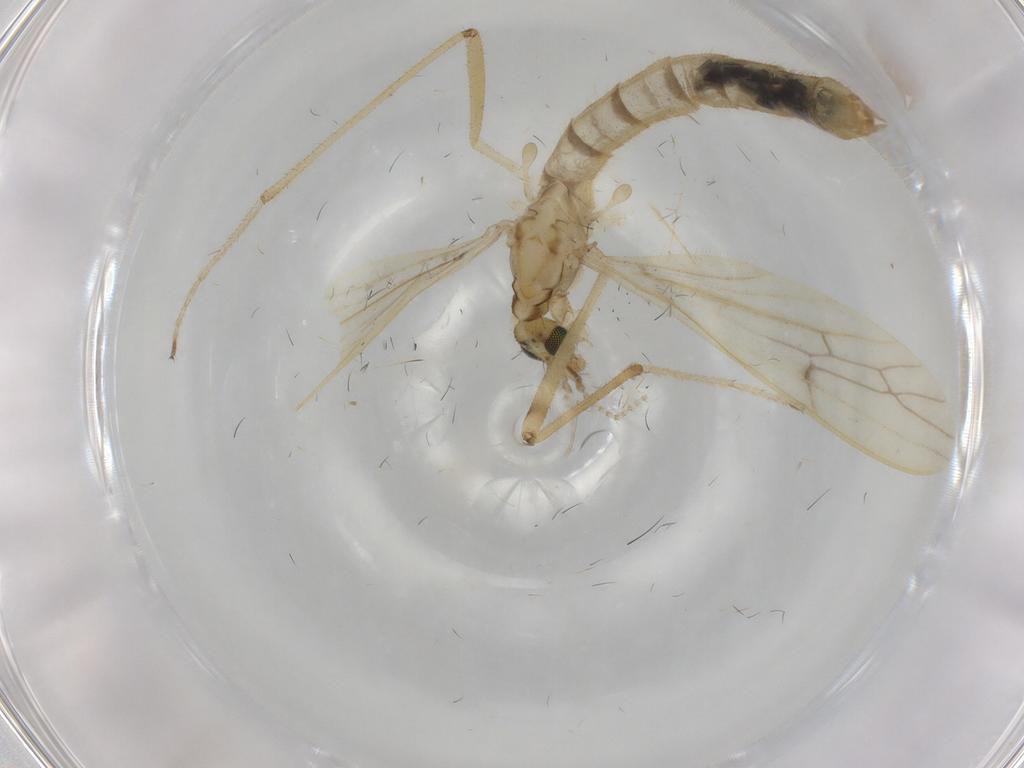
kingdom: Animalia
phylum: Arthropoda
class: Insecta
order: Diptera
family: Limoniidae
